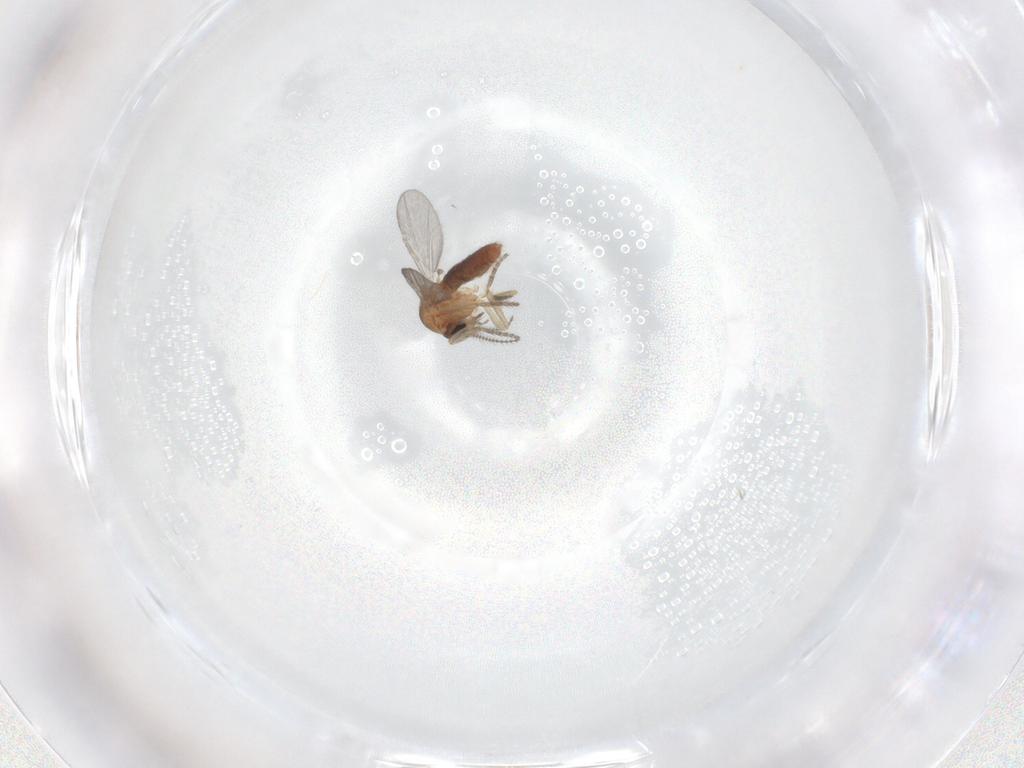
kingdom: Animalia
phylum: Arthropoda
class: Insecta
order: Diptera
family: Ceratopogonidae
